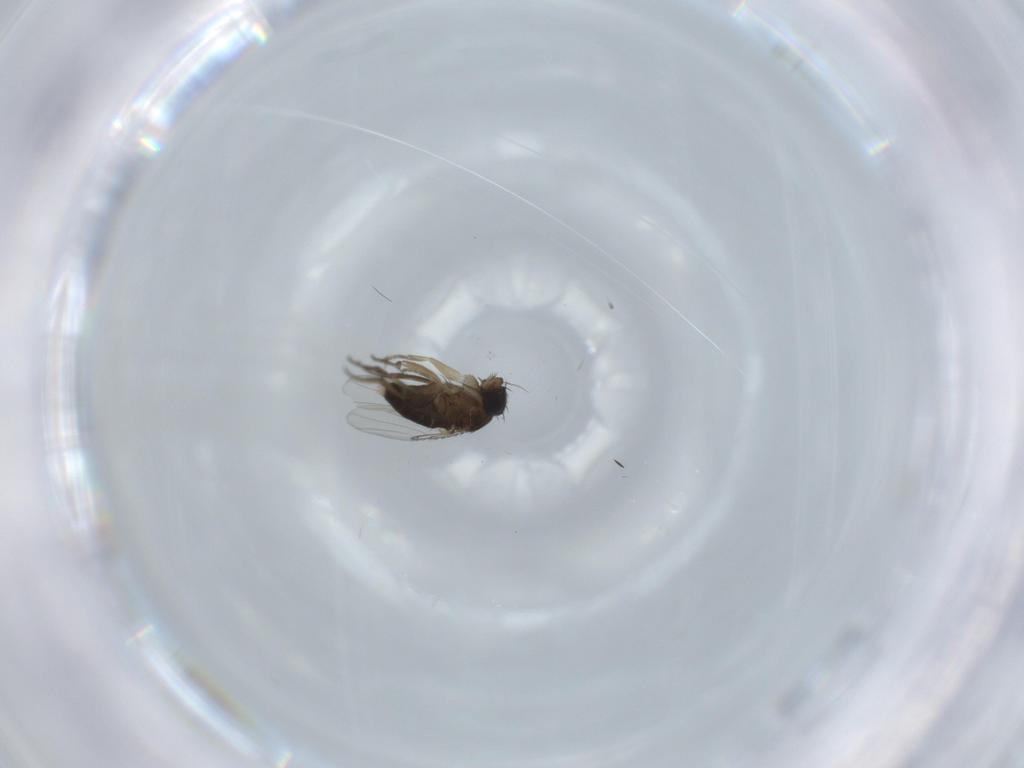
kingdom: Animalia
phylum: Arthropoda
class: Insecta
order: Diptera
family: Phoridae
